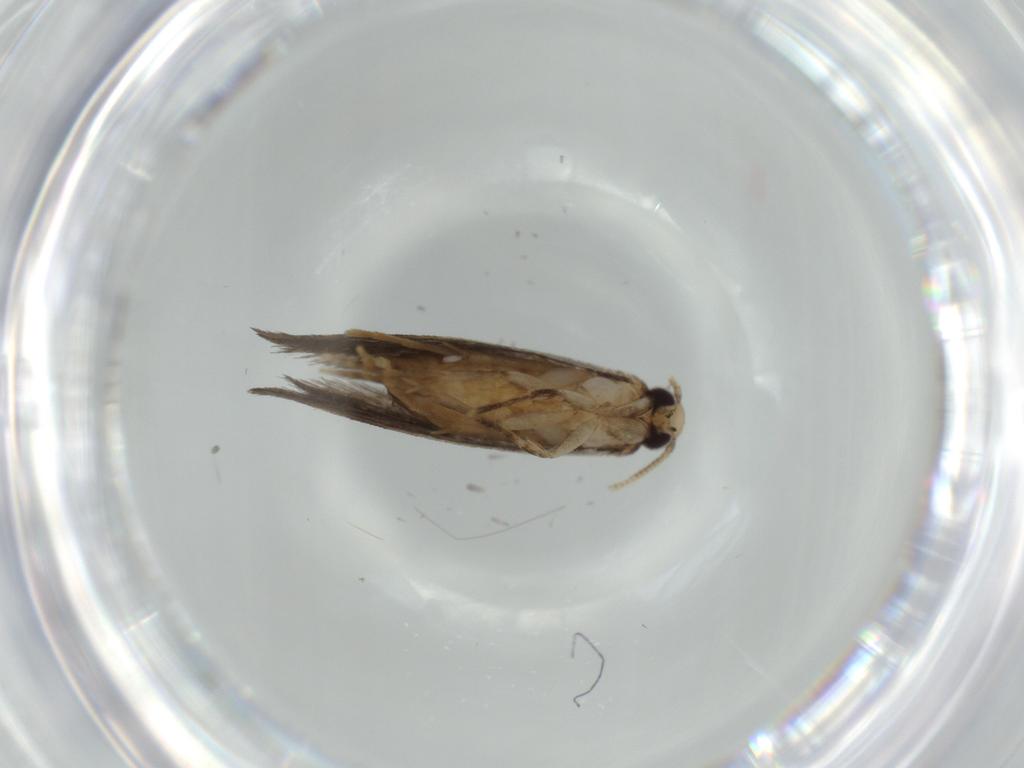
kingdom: Animalia
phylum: Arthropoda
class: Insecta
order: Lepidoptera
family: Tineidae
